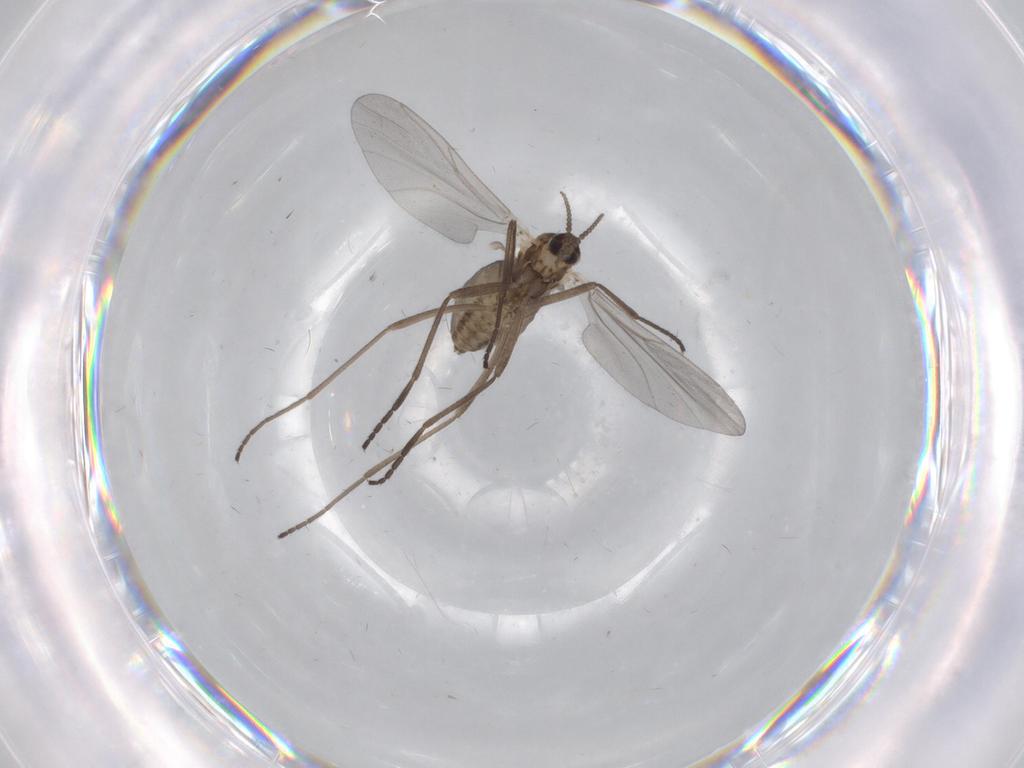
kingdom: Animalia
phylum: Arthropoda
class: Insecta
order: Diptera
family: Cecidomyiidae
